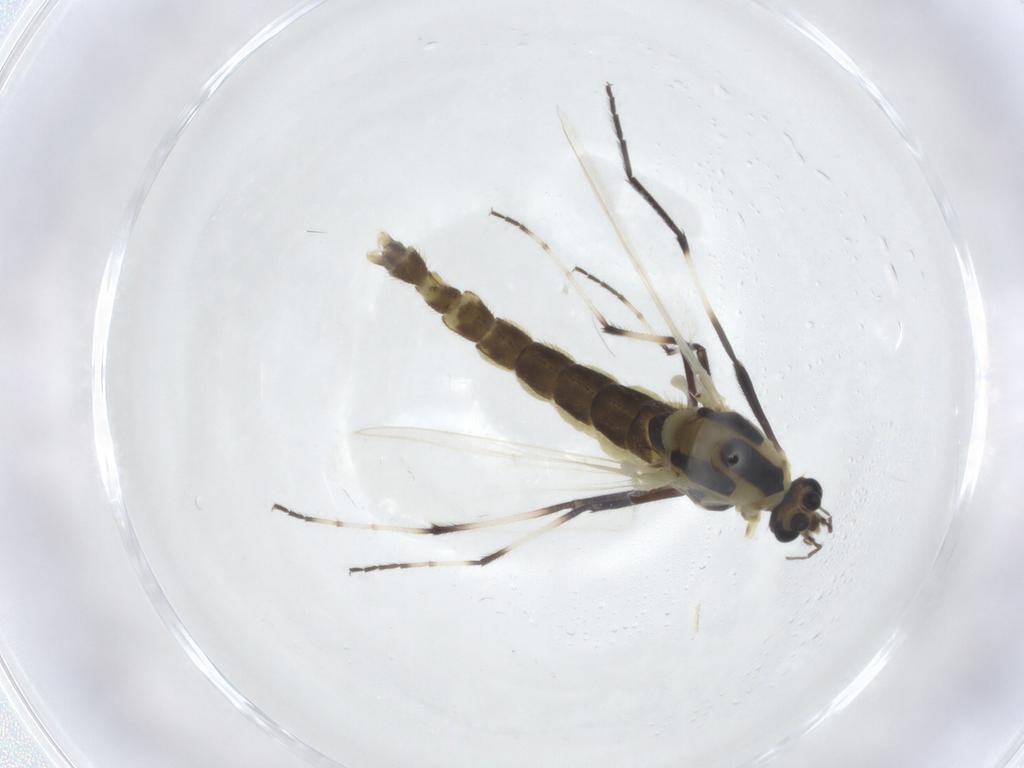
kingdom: Animalia
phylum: Arthropoda
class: Insecta
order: Diptera
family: Chironomidae
